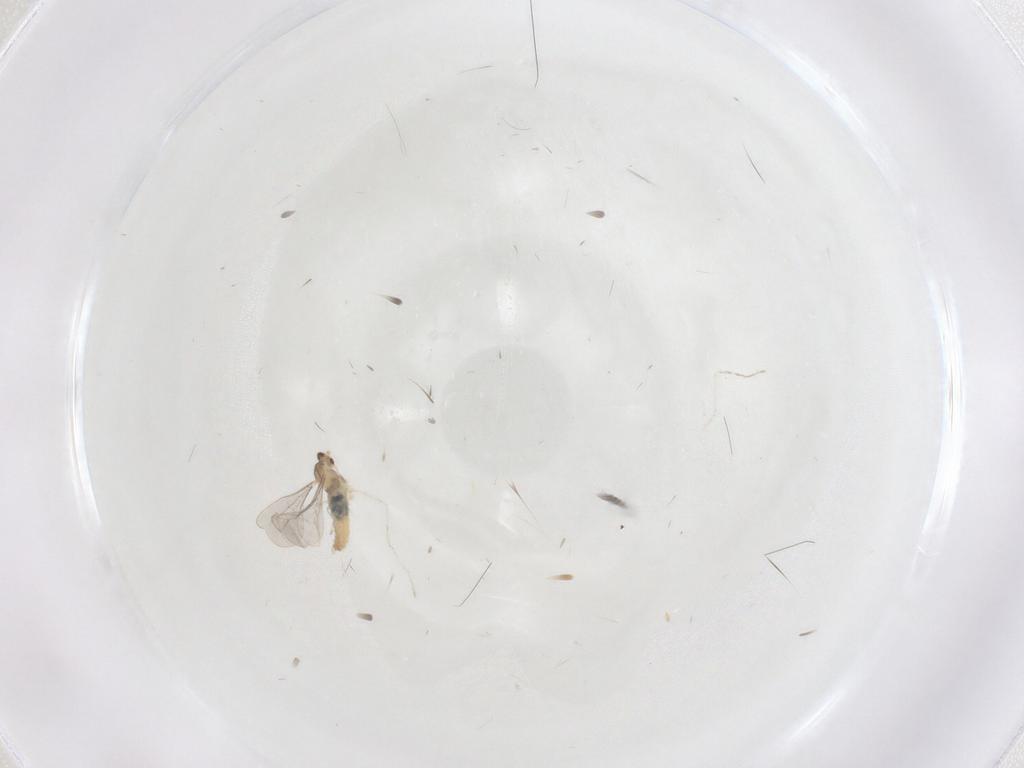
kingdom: Animalia
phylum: Arthropoda
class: Insecta
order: Diptera
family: Cecidomyiidae
